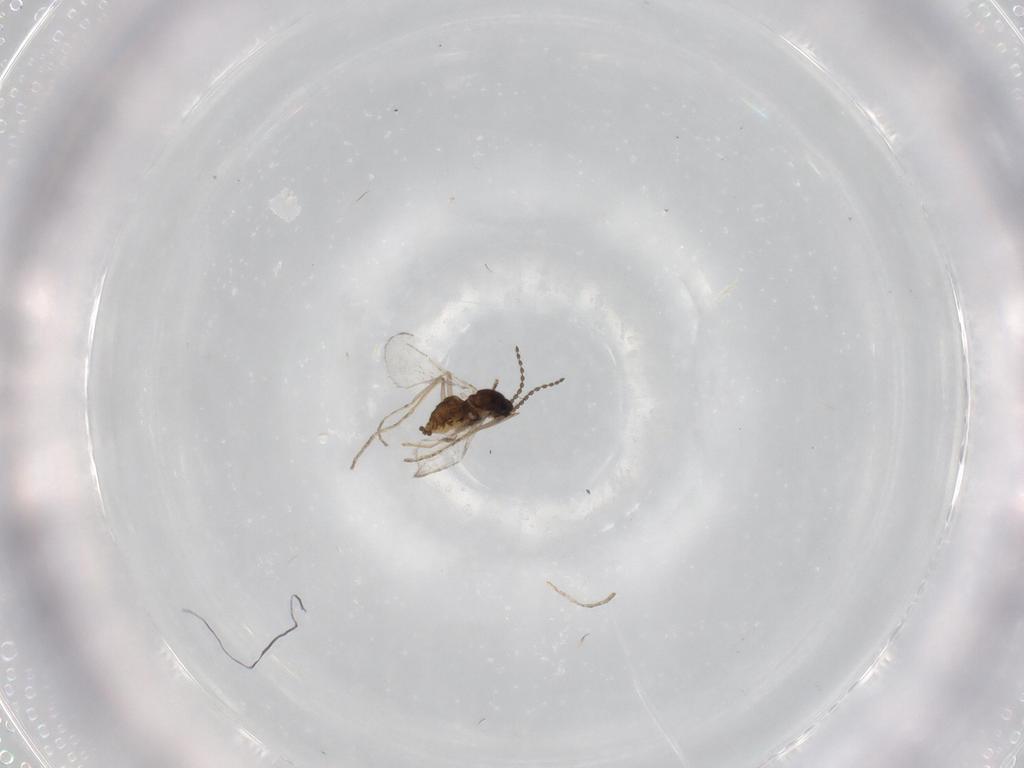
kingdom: Animalia
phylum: Arthropoda
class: Insecta
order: Diptera
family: Cecidomyiidae
